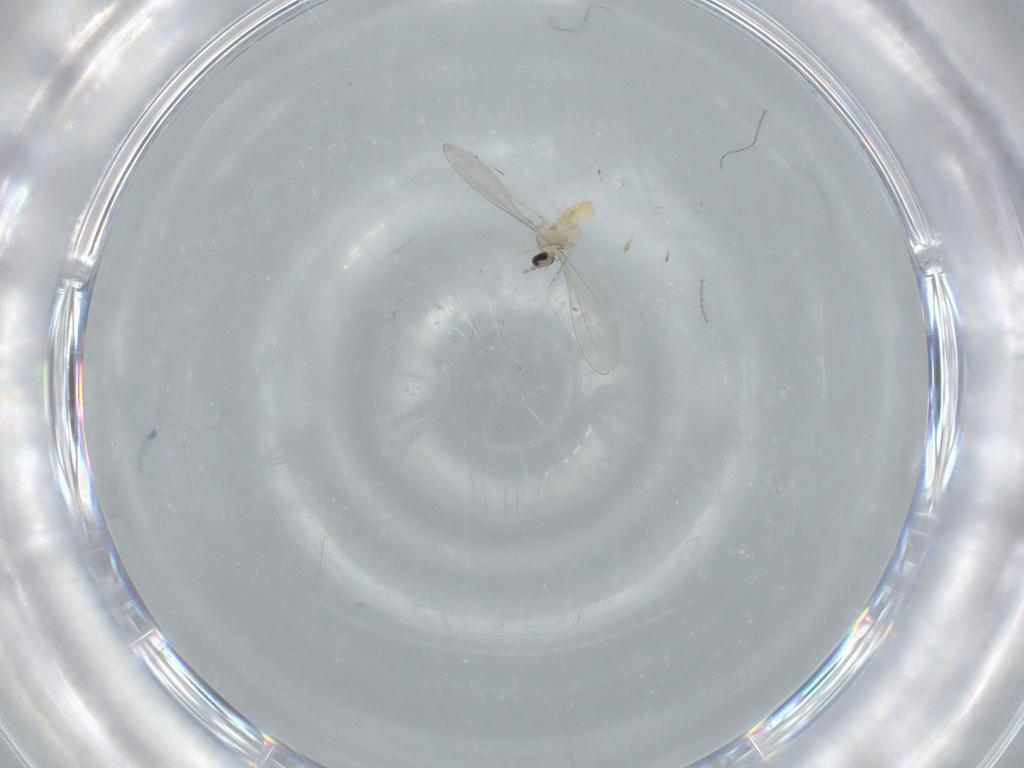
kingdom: Animalia
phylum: Arthropoda
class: Insecta
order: Diptera
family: Cecidomyiidae
